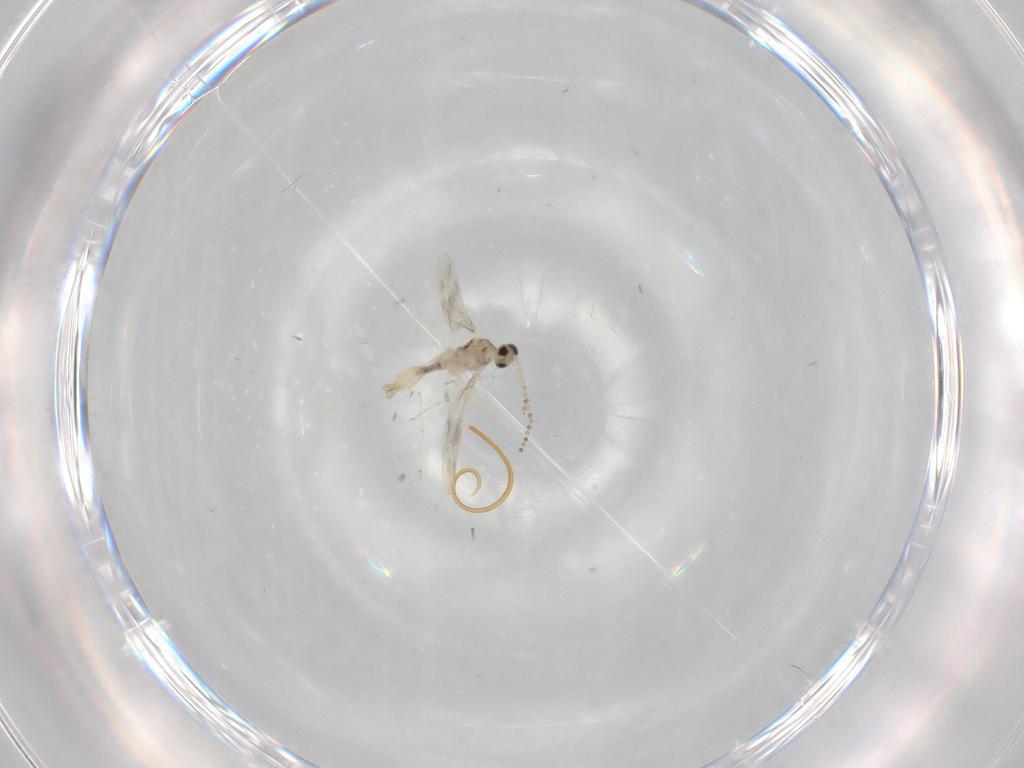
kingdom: Animalia
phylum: Arthropoda
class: Insecta
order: Diptera
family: Cecidomyiidae
